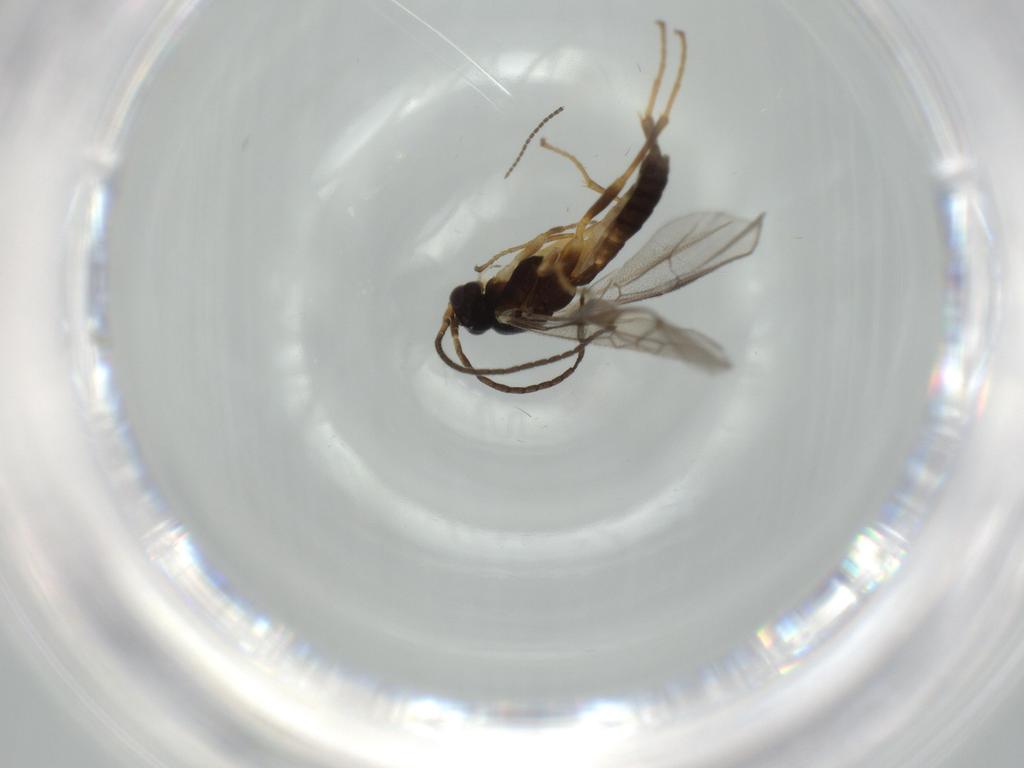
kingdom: Animalia
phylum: Arthropoda
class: Insecta
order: Hymenoptera
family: Ichneumonidae
